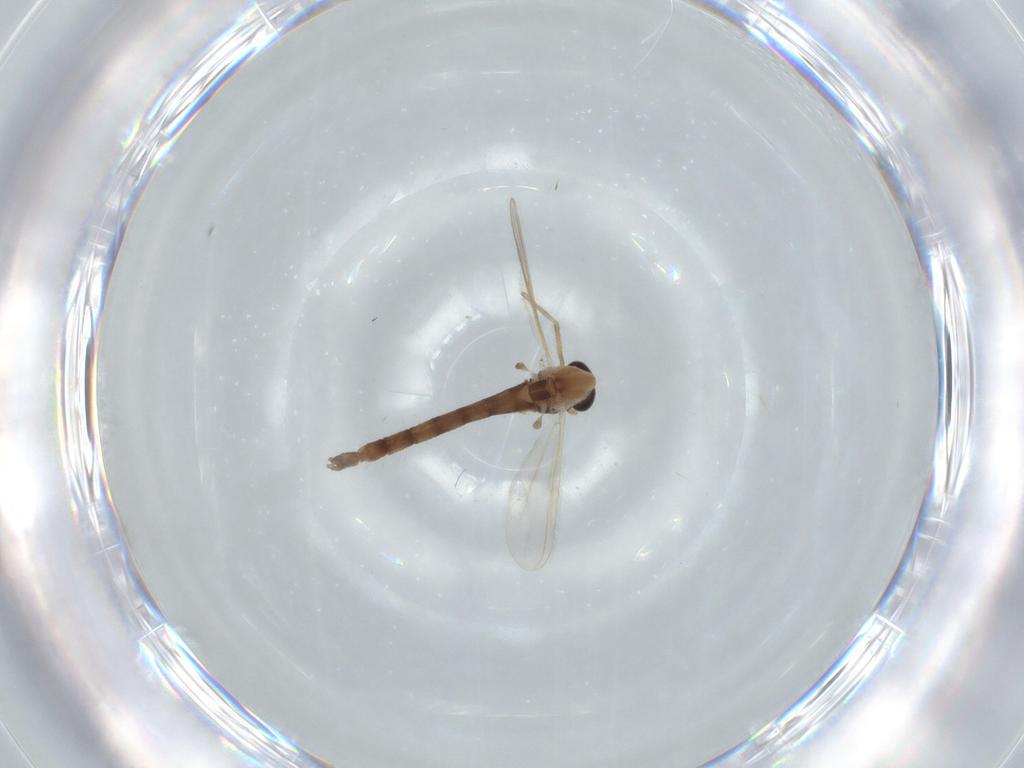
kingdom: Animalia
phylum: Arthropoda
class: Insecta
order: Diptera
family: Chironomidae
